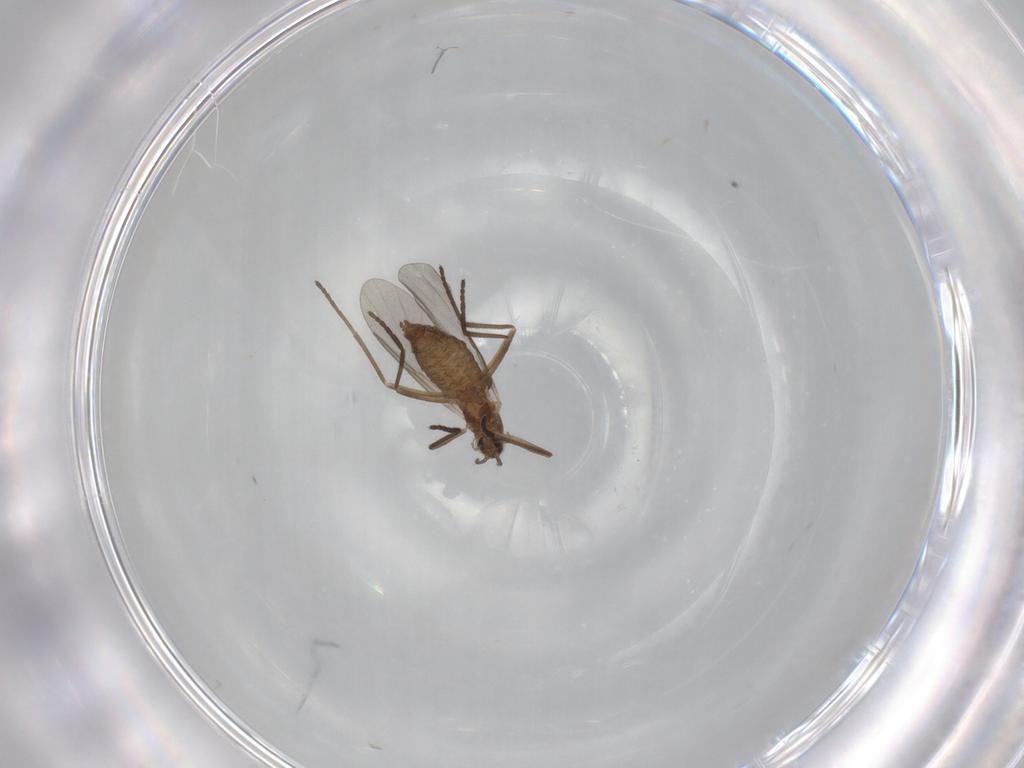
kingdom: Animalia
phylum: Arthropoda
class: Insecta
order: Diptera
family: Cecidomyiidae
